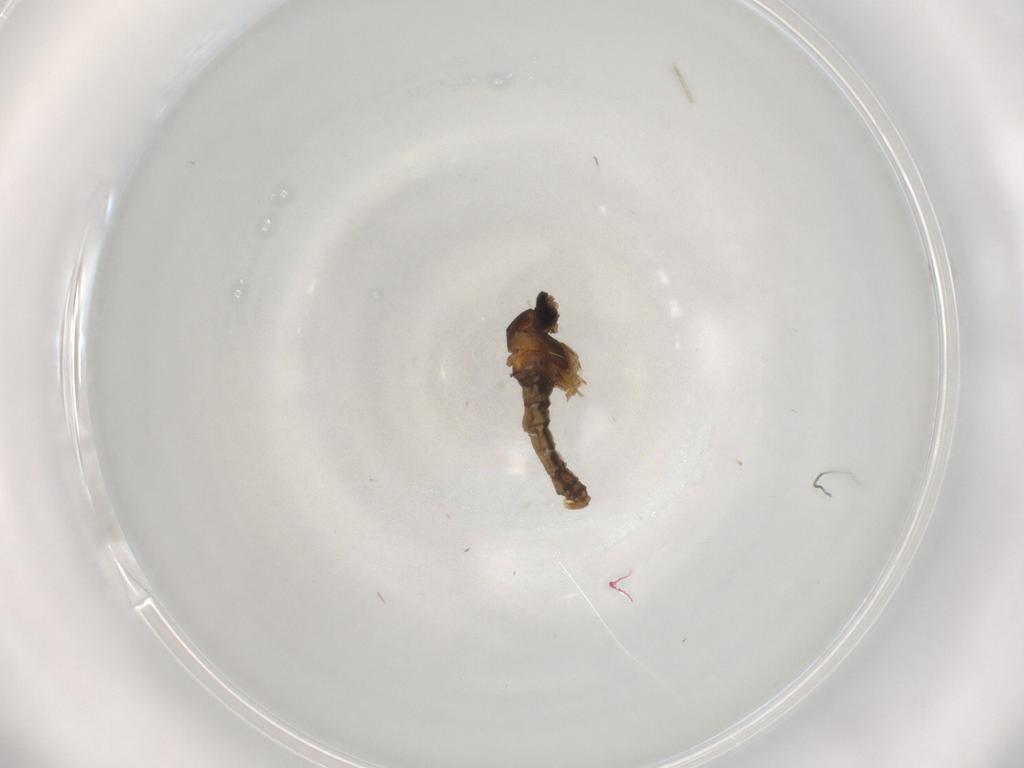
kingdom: Animalia
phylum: Arthropoda
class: Insecta
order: Diptera
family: Cecidomyiidae
